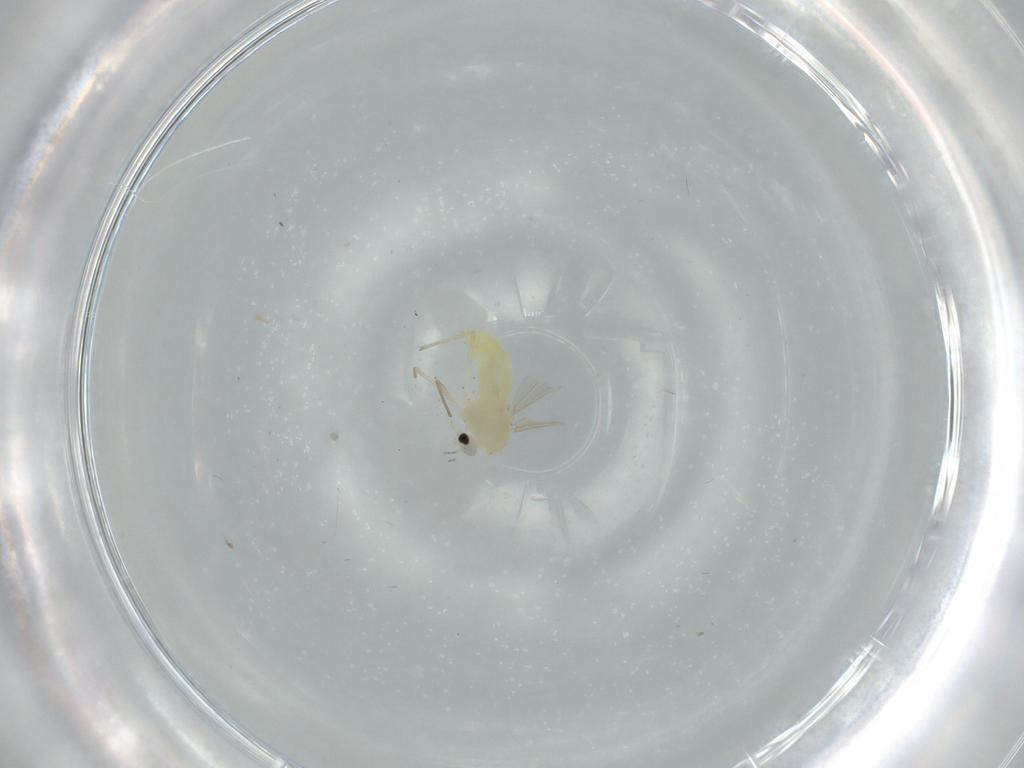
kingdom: Animalia
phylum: Arthropoda
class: Insecta
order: Diptera
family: Chironomidae
